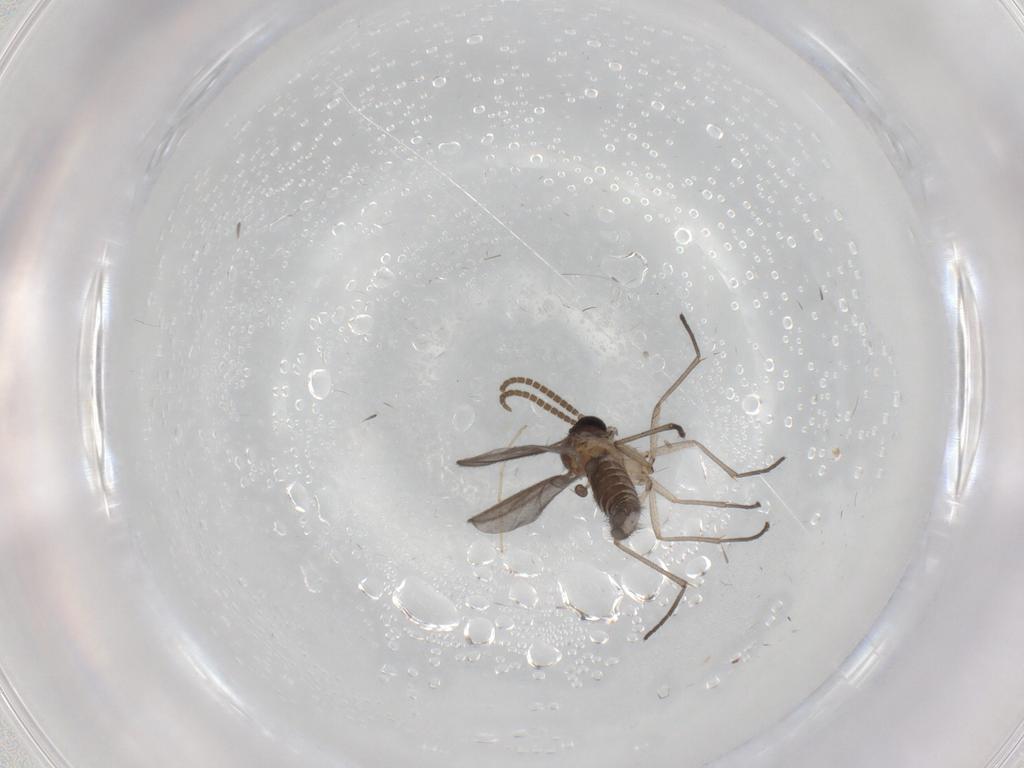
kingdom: Animalia
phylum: Arthropoda
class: Insecta
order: Diptera
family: Chironomidae
